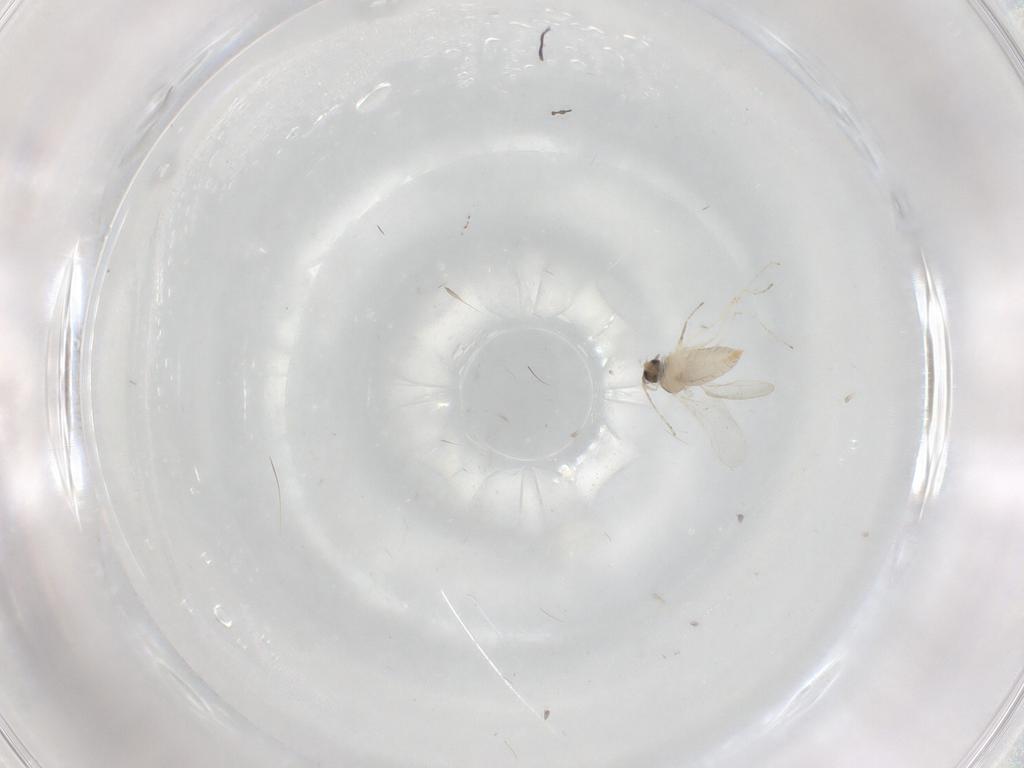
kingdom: Animalia
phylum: Arthropoda
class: Insecta
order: Diptera
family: Cecidomyiidae
